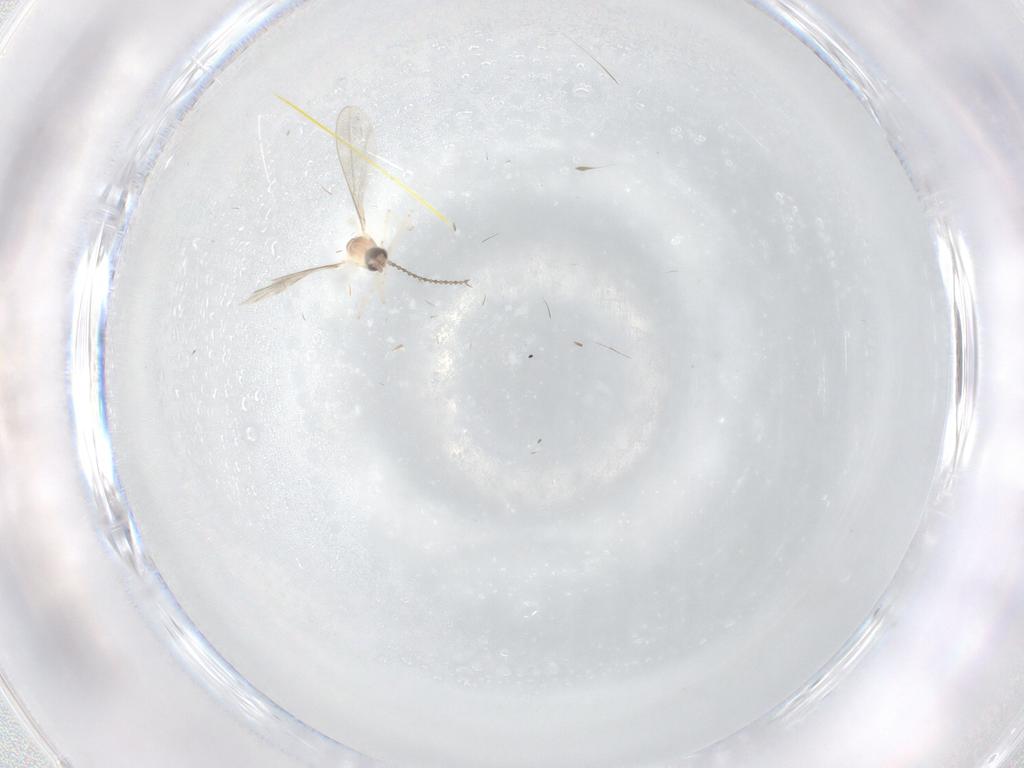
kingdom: Animalia
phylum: Arthropoda
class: Insecta
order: Diptera
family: Cecidomyiidae
